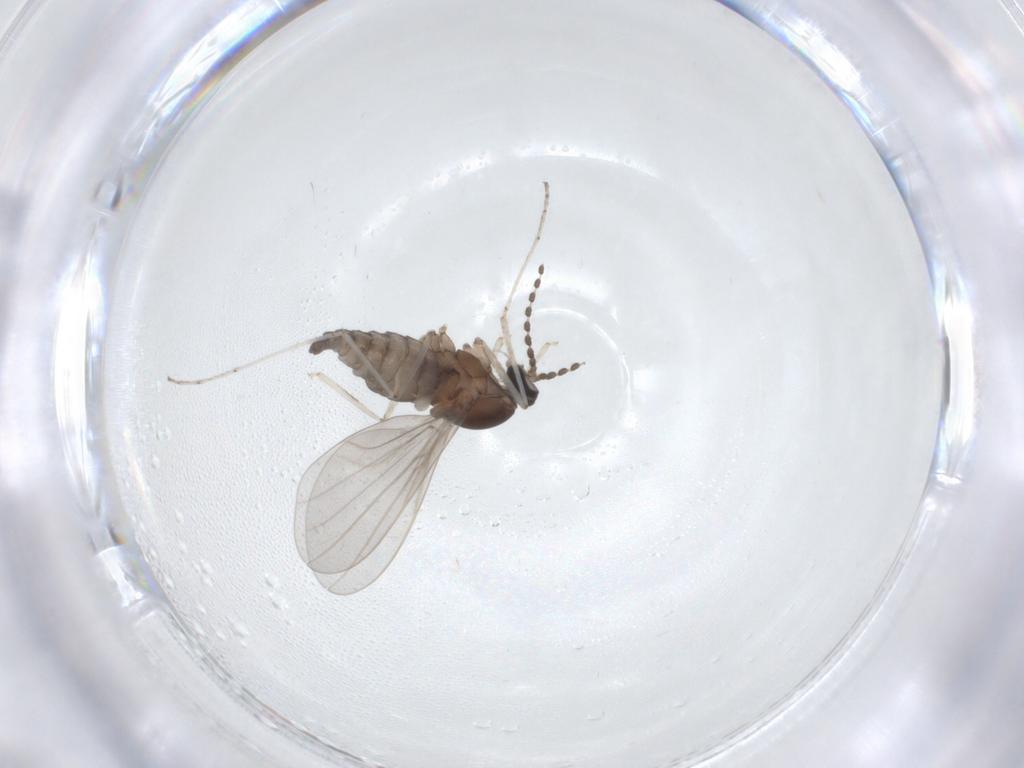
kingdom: Animalia
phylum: Arthropoda
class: Insecta
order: Diptera
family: Cecidomyiidae
